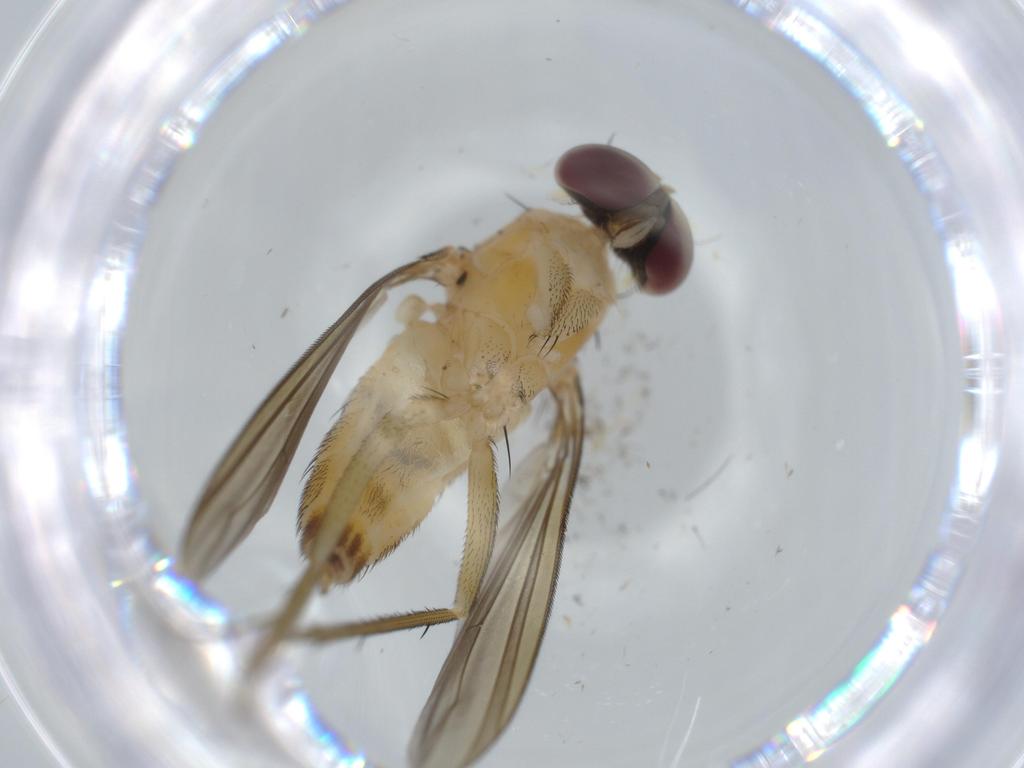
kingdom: Animalia
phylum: Arthropoda
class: Insecta
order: Diptera
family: Dolichopodidae
